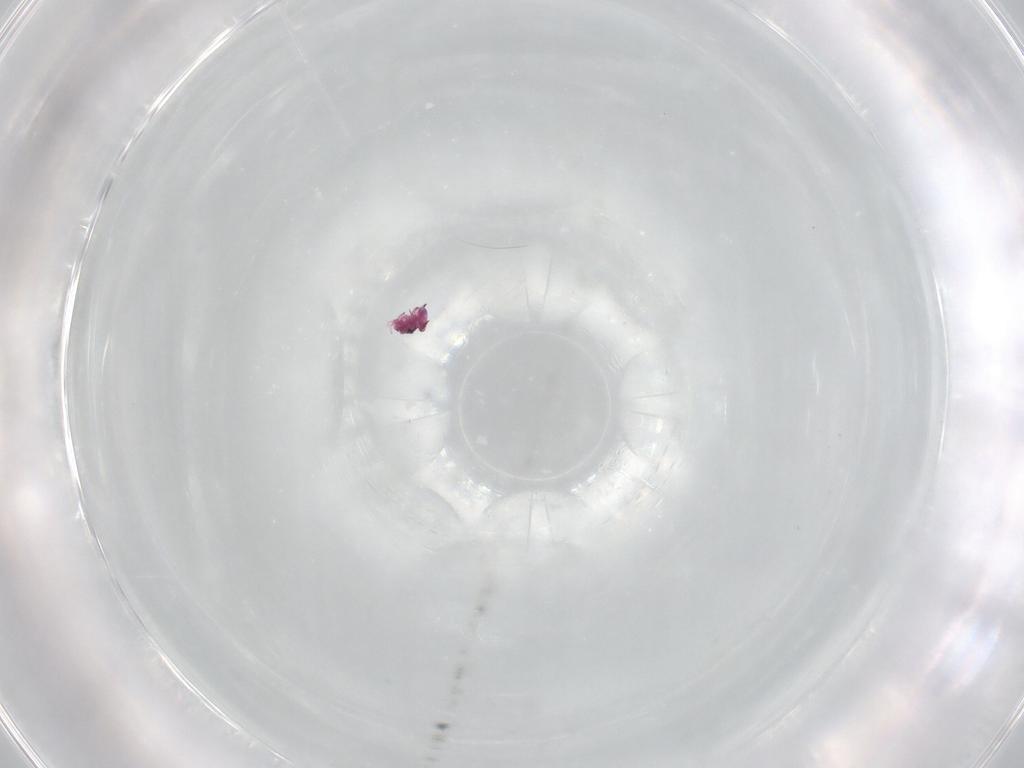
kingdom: Animalia
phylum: Arthropoda
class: Collembola
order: Symphypleona
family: Sminthurididae
